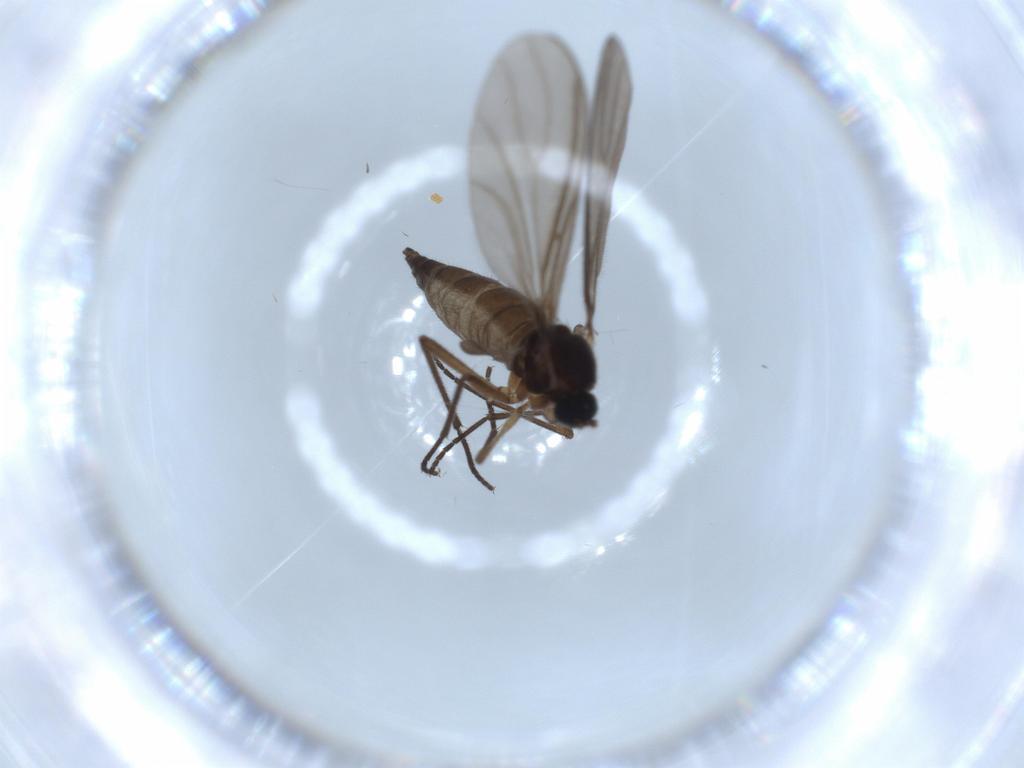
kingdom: Animalia
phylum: Arthropoda
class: Insecta
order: Diptera
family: Sciaridae
